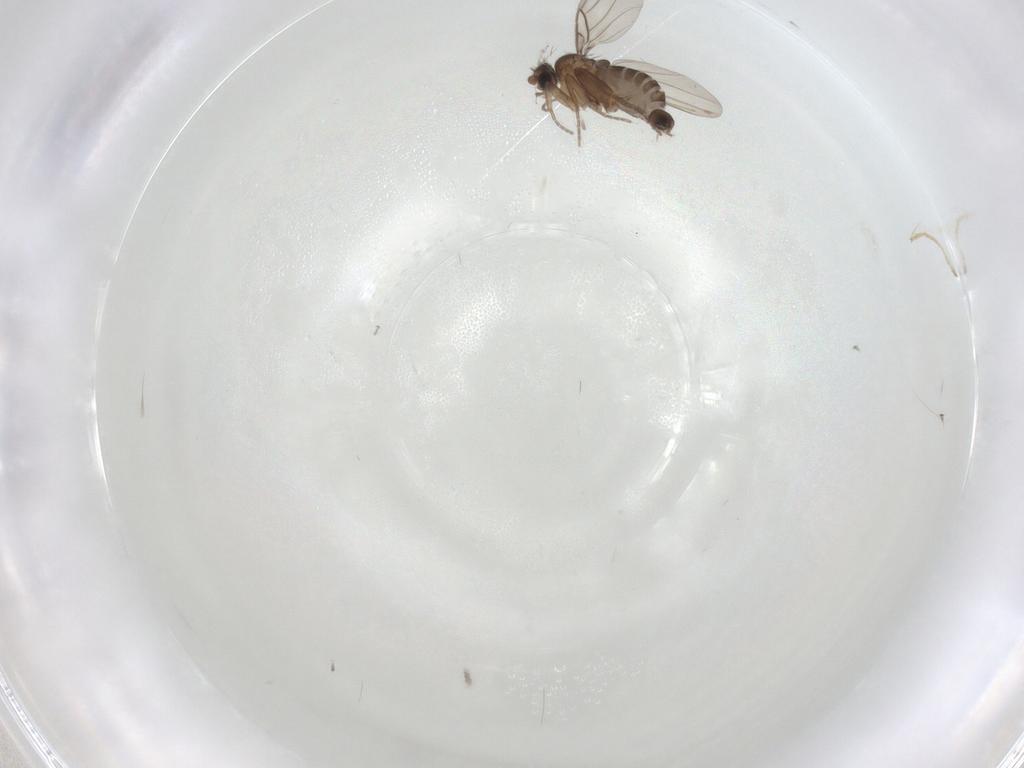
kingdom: Animalia
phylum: Arthropoda
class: Insecta
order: Diptera
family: Phoridae
